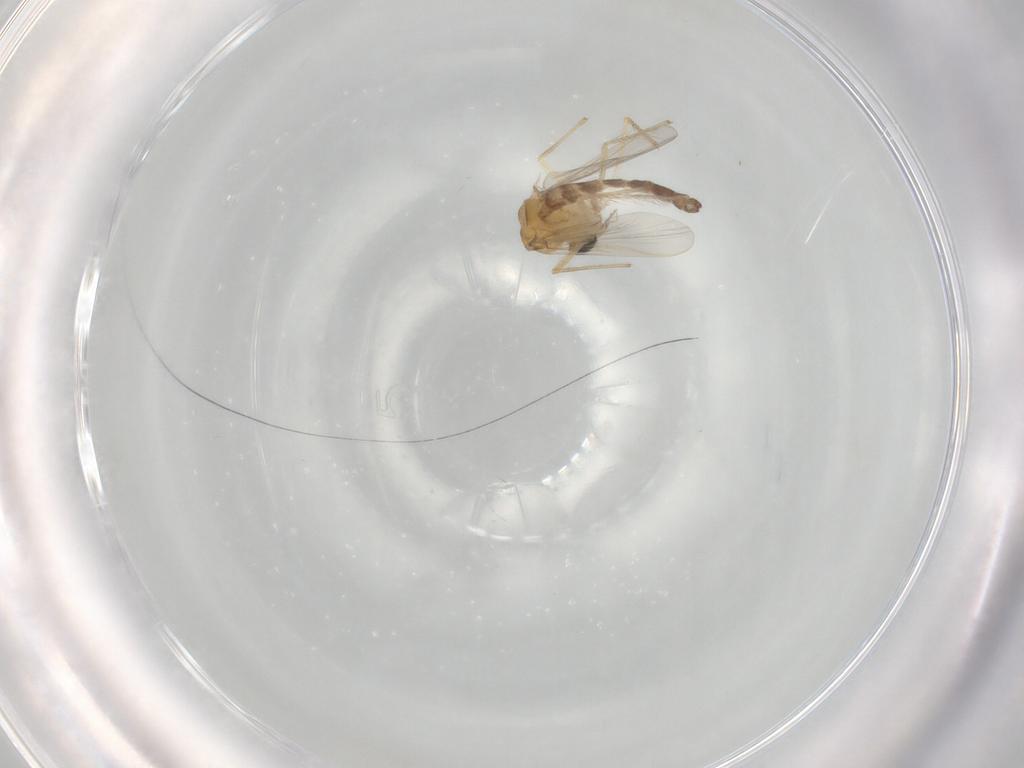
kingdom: Animalia
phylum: Arthropoda
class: Insecta
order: Diptera
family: Chironomidae
